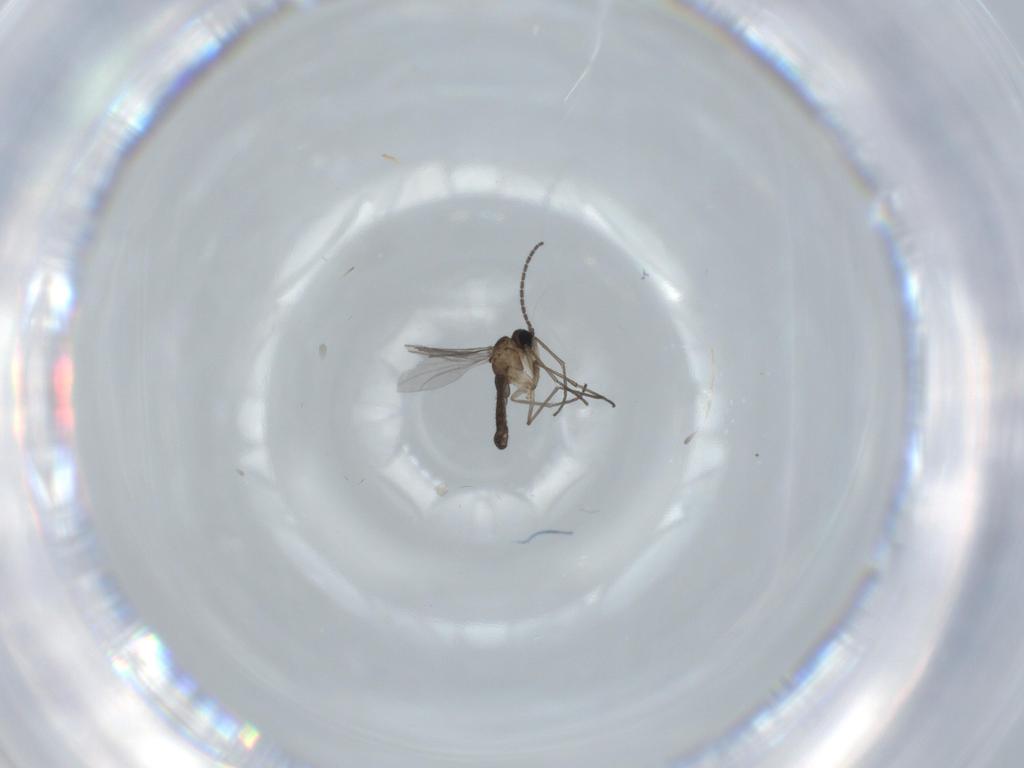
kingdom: Animalia
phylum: Arthropoda
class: Insecta
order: Diptera
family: Sciaridae
